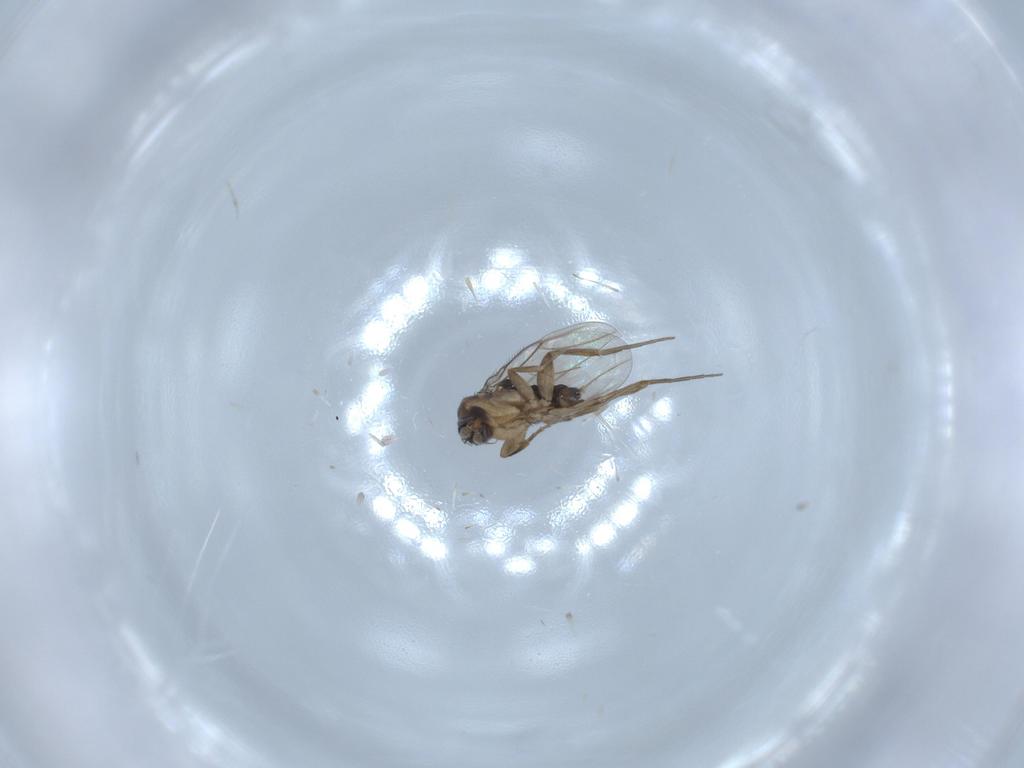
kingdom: Animalia
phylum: Arthropoda
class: Insecta
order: Diptera
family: Phoridae
